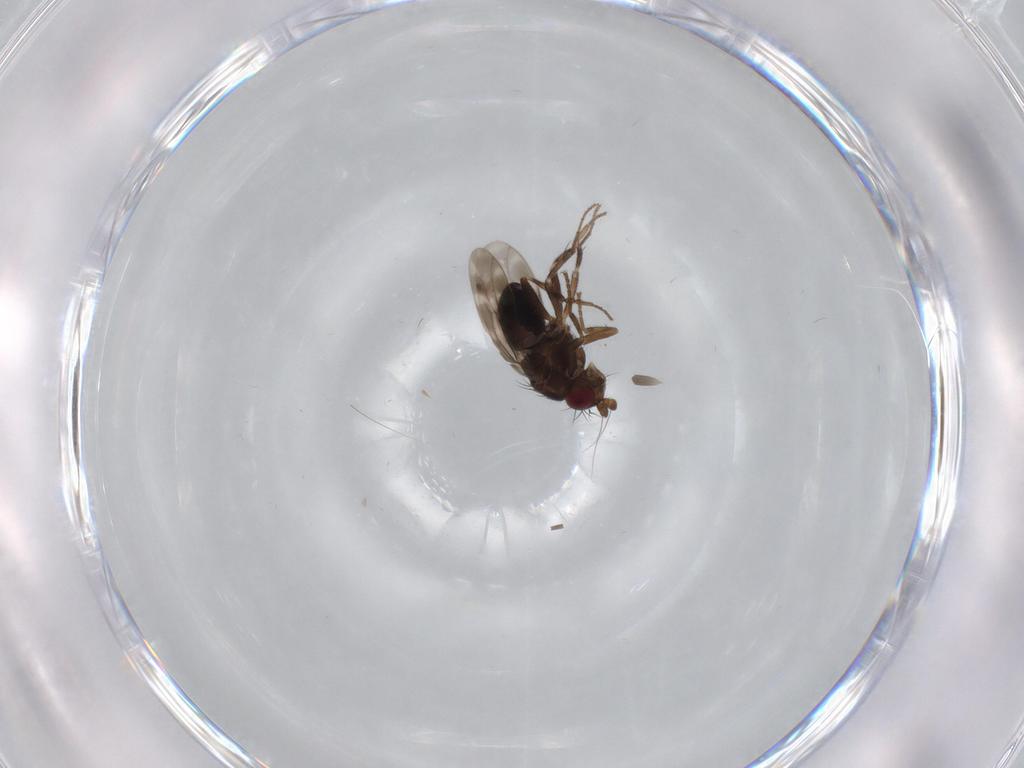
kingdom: Animalia
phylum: Arthropoda
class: Insecta
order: Diptera
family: Sphaeroceridae
